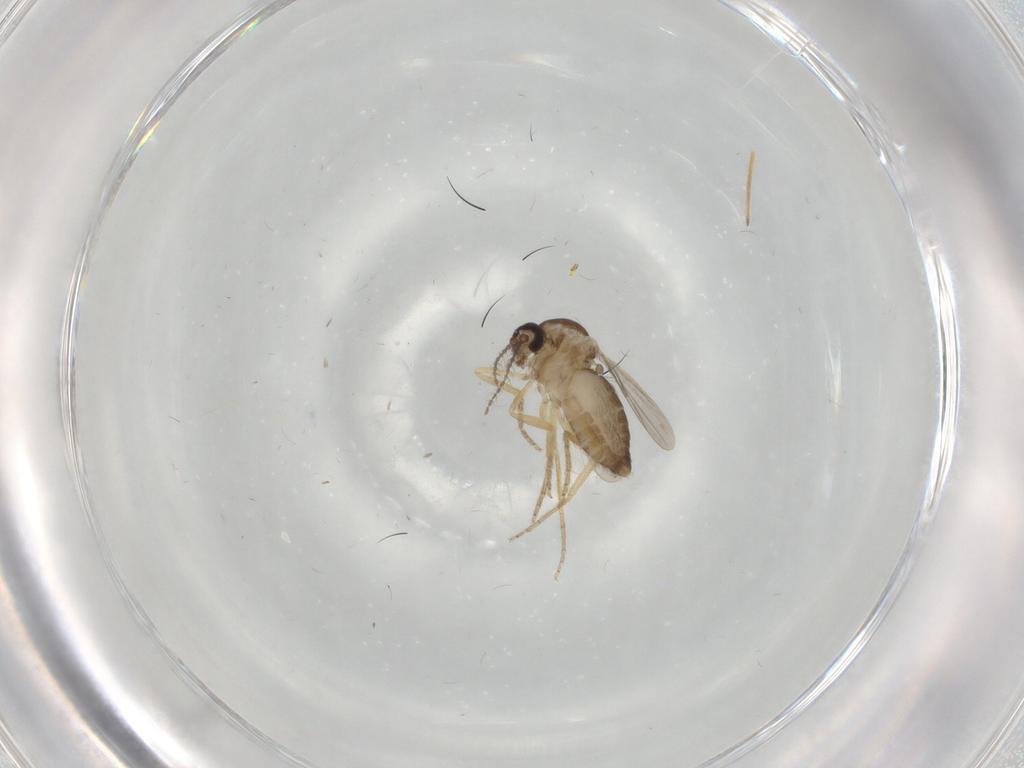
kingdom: Animalia
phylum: Arthropoda
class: Insecta
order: Diptera
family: Ceratopogonidae
